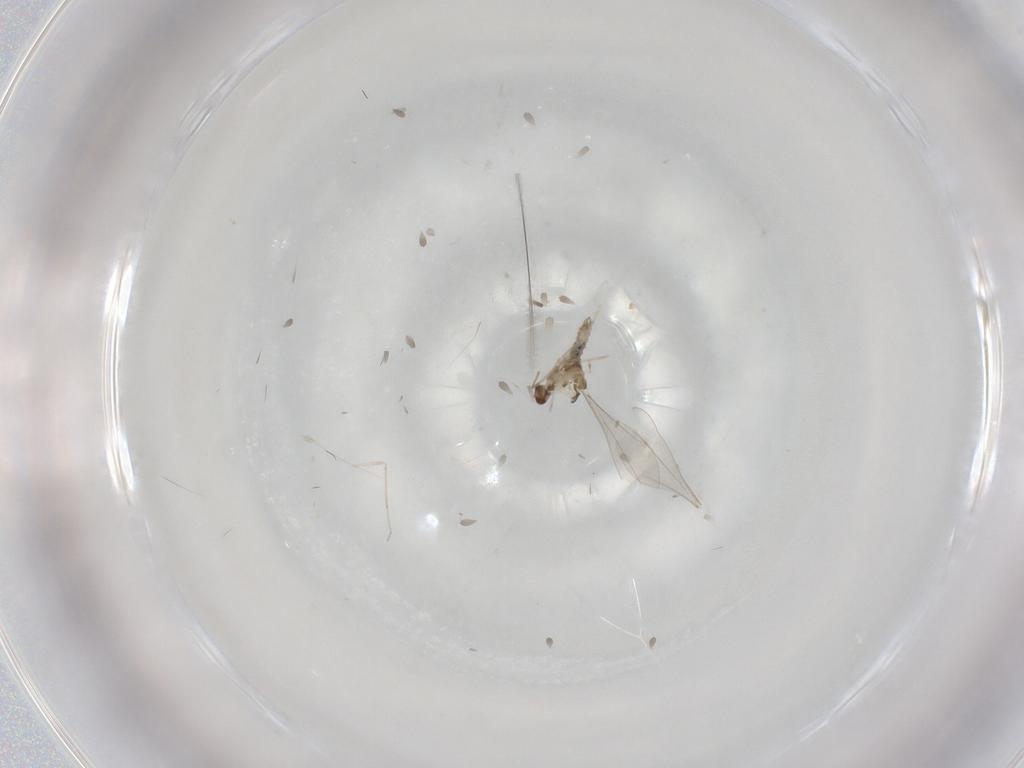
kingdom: Animalia
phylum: Arthropoda
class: Insecta
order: Diptera
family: Cecidomyiidae
